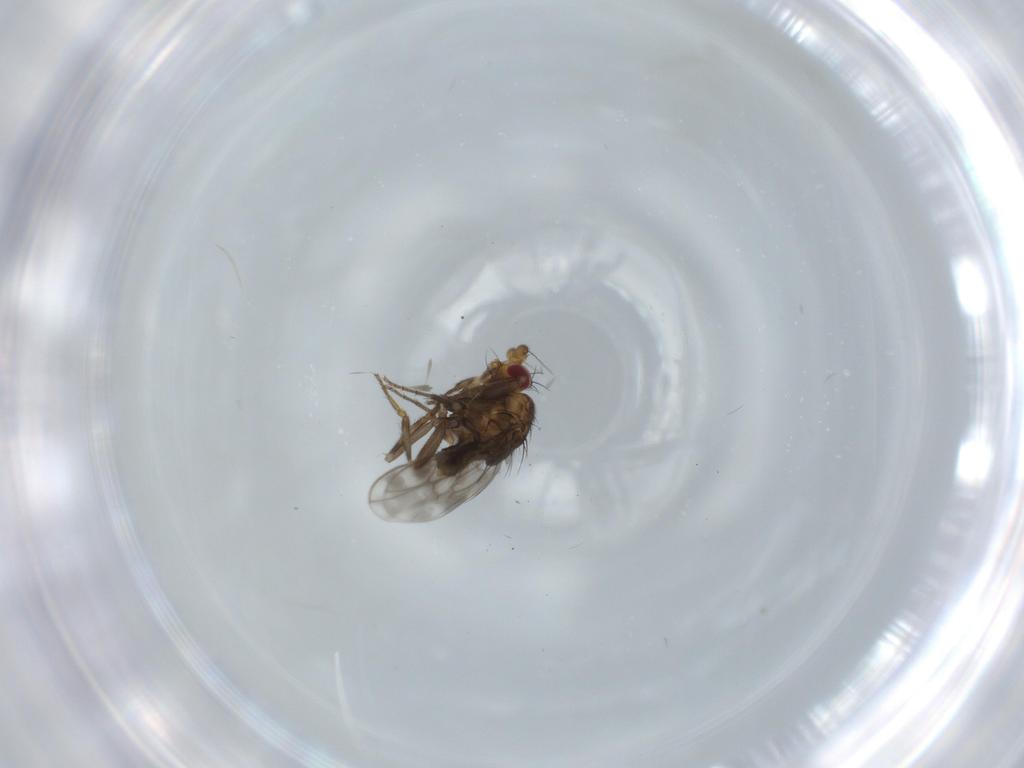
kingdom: Animalia
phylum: Arthropoda
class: Insecta
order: Diptera
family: Sphaeroceridae
